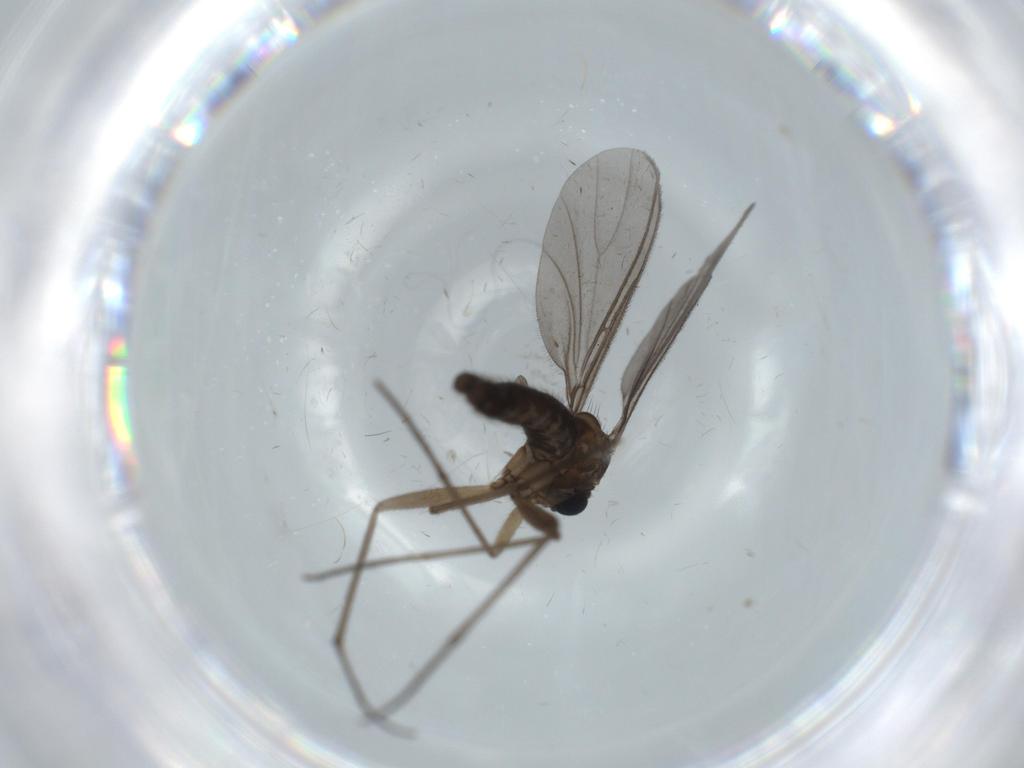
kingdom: Animalia
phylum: Arthropoda
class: Insecta
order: Diptera
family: Sciaridae
